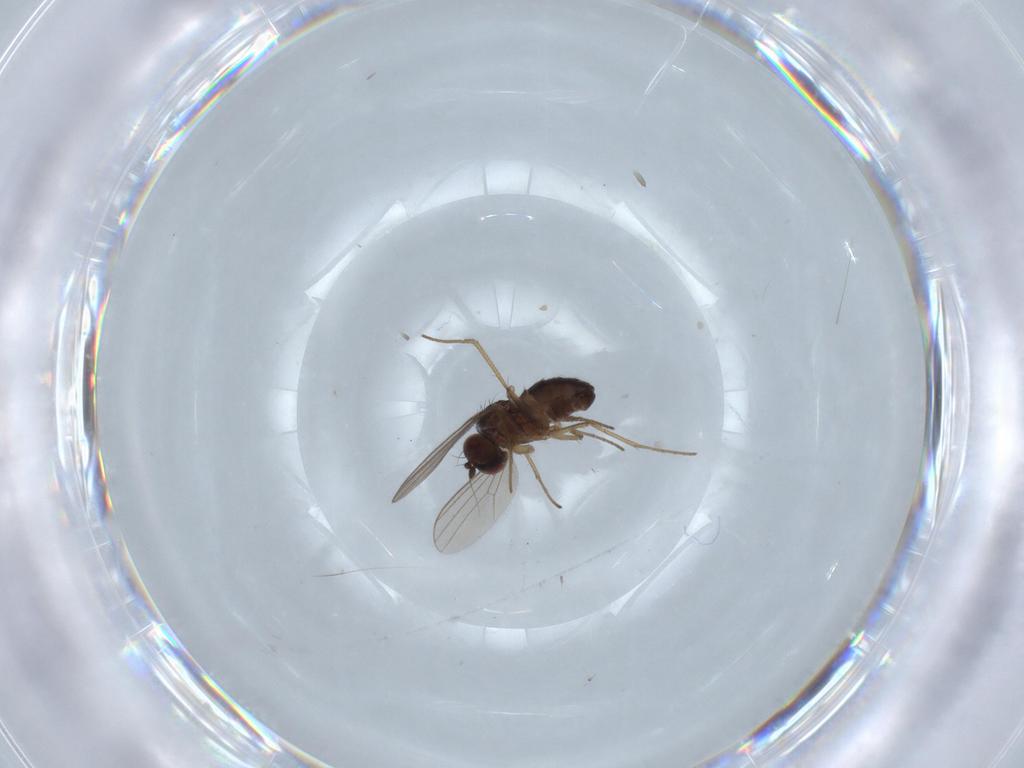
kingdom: Animalia
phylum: Arthropoda
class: Insecta
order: Diptera
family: Dolichopodidae
